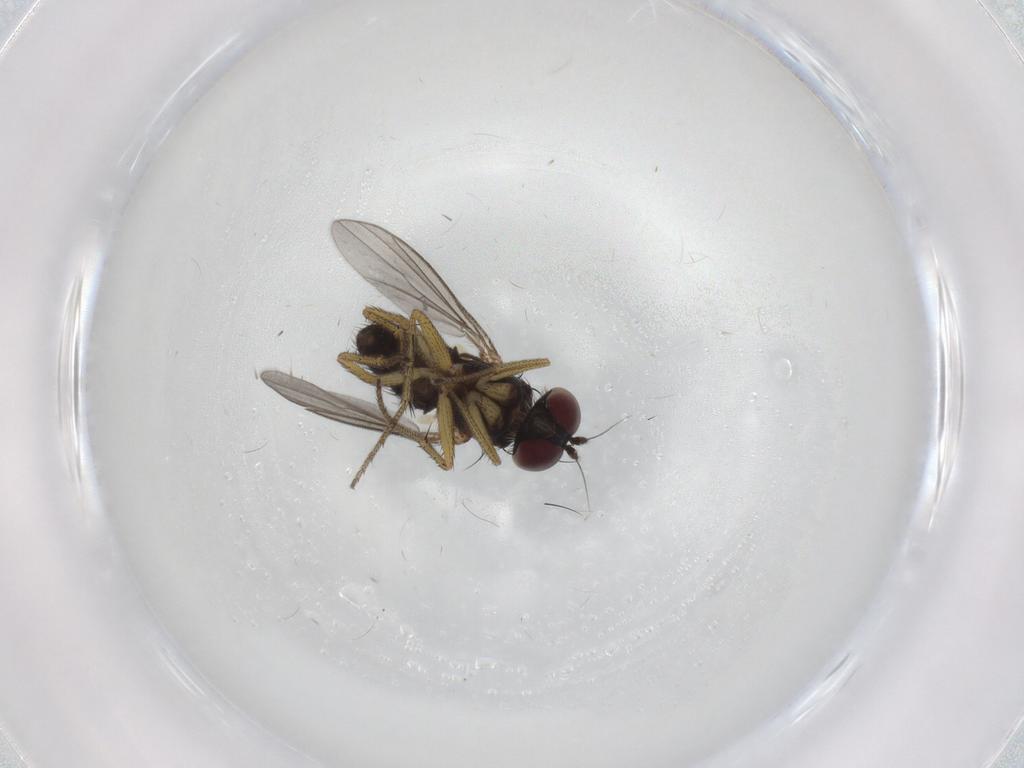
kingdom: Animalia
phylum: Arthropoda
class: Insecta
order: Diptera
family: Dolichopodidae
